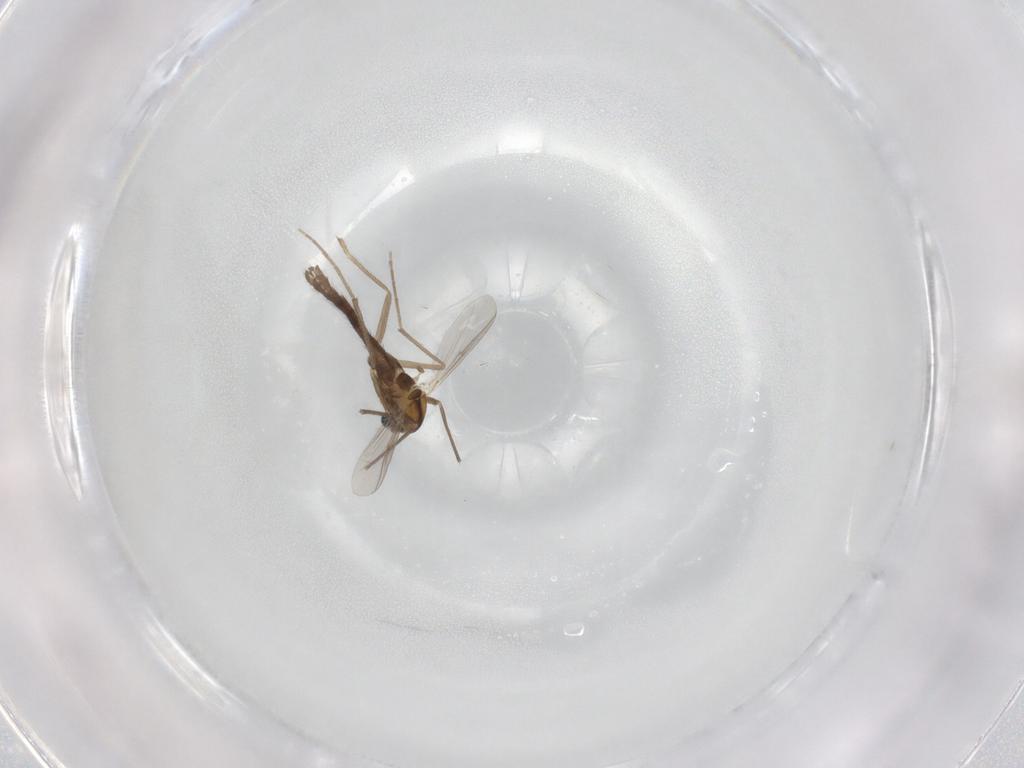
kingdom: Animalia
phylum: Arthropoda
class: Insecta
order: Diptera
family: Chironomidae
